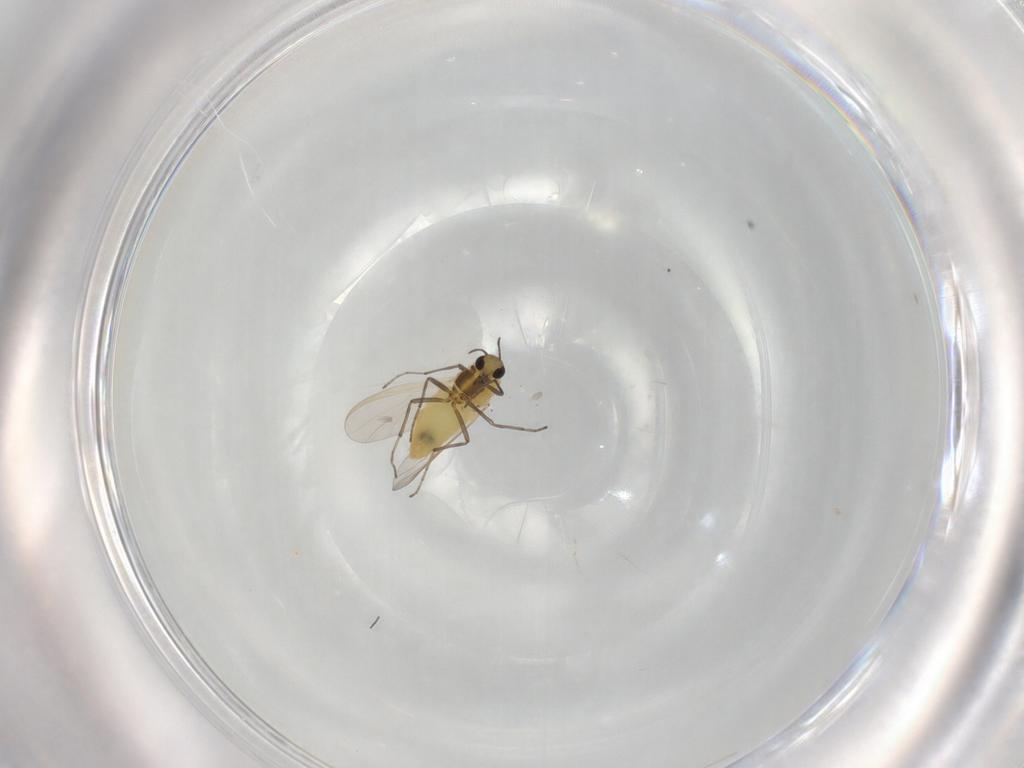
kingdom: Animalia
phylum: Arthropoda
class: Insecta
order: Diptera
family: Chironomidae
